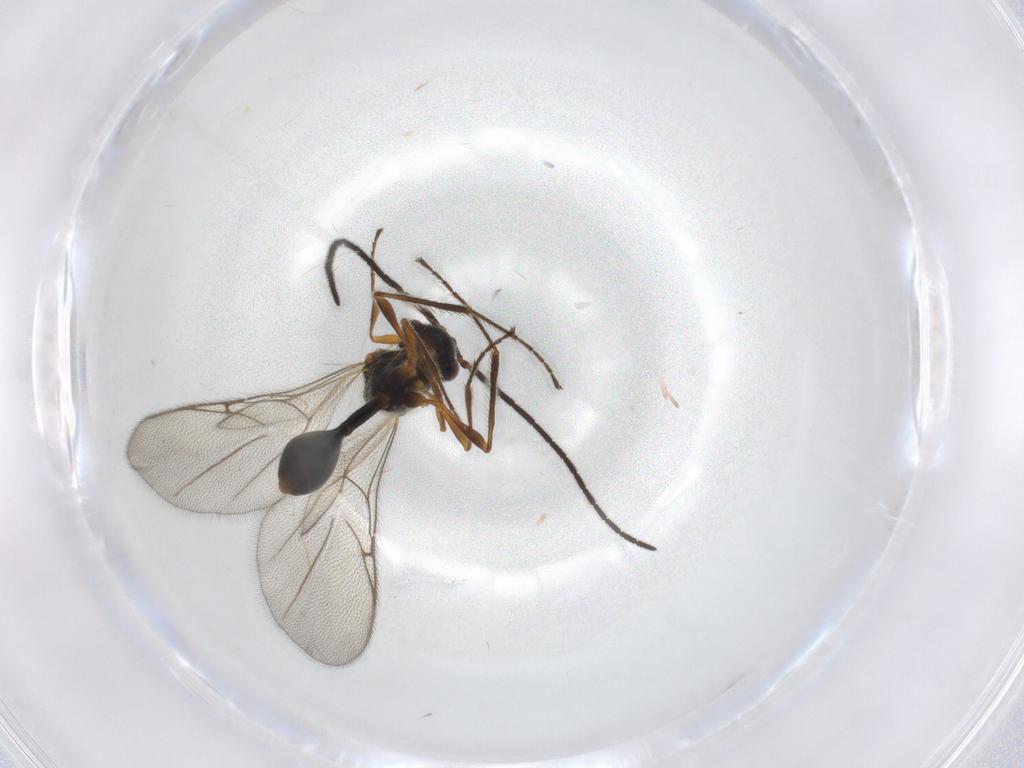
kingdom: Animalia
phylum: Arthropoda
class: Insecta
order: Hymenoptera
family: Diapriidae
